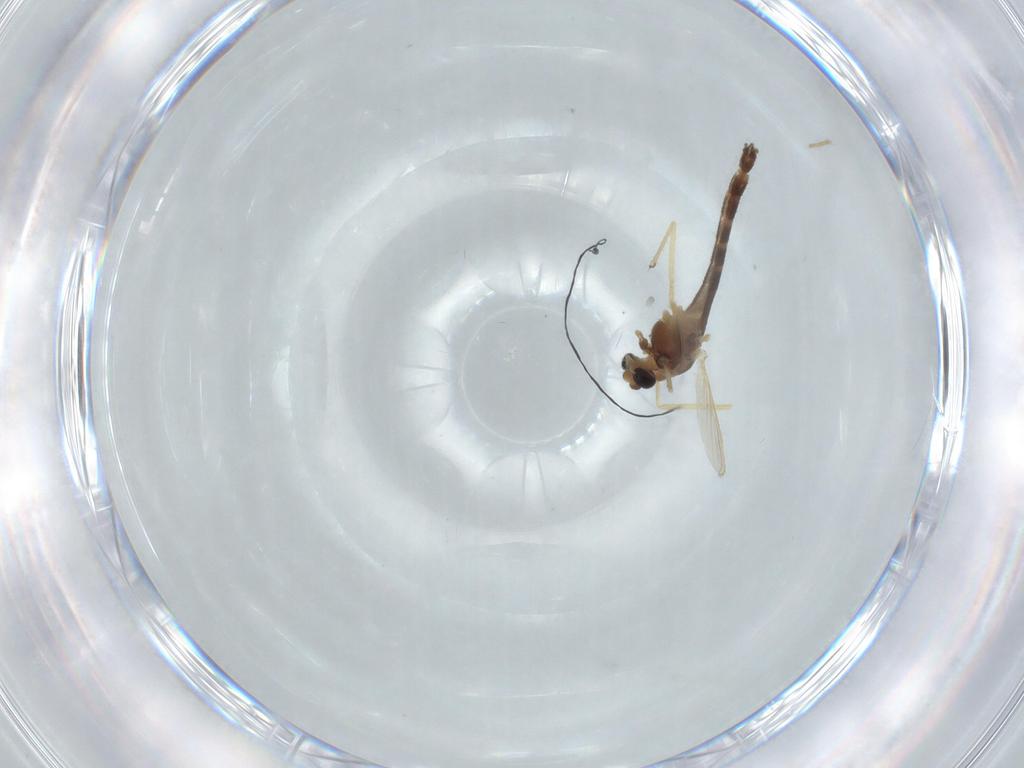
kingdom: Animalia
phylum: Arthropoda
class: Insecta
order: Diptera
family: Chironomidae
